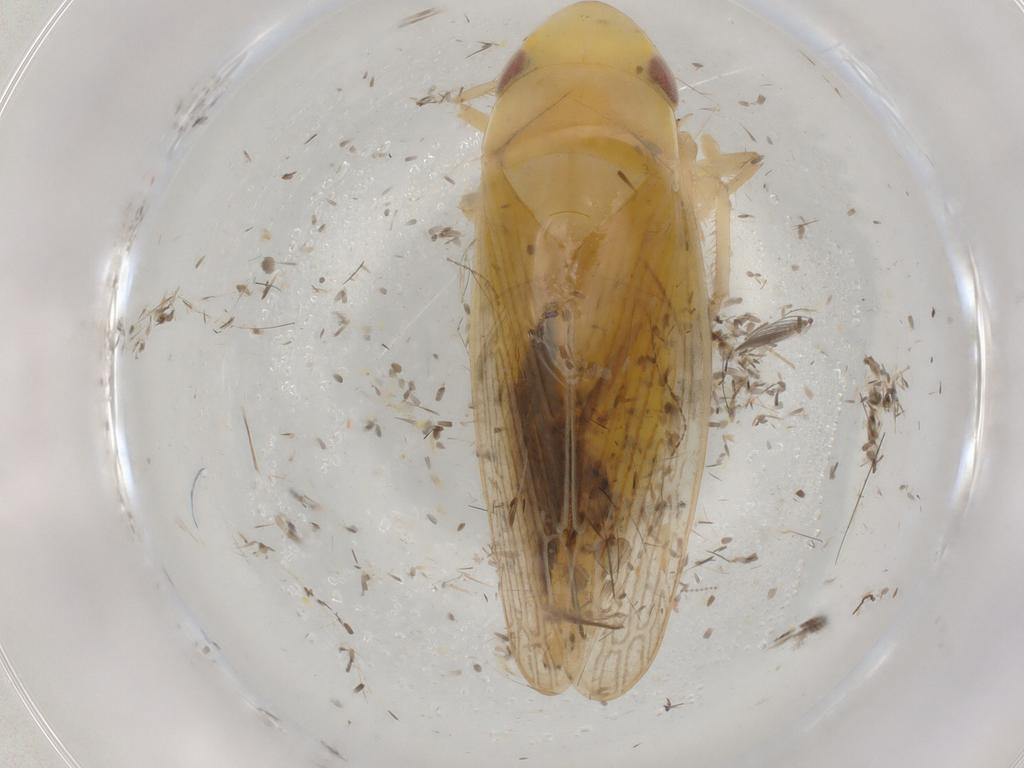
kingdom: Animalia
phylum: Arthropoda
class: Insecta
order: Hemiptera
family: Cicadellidae
